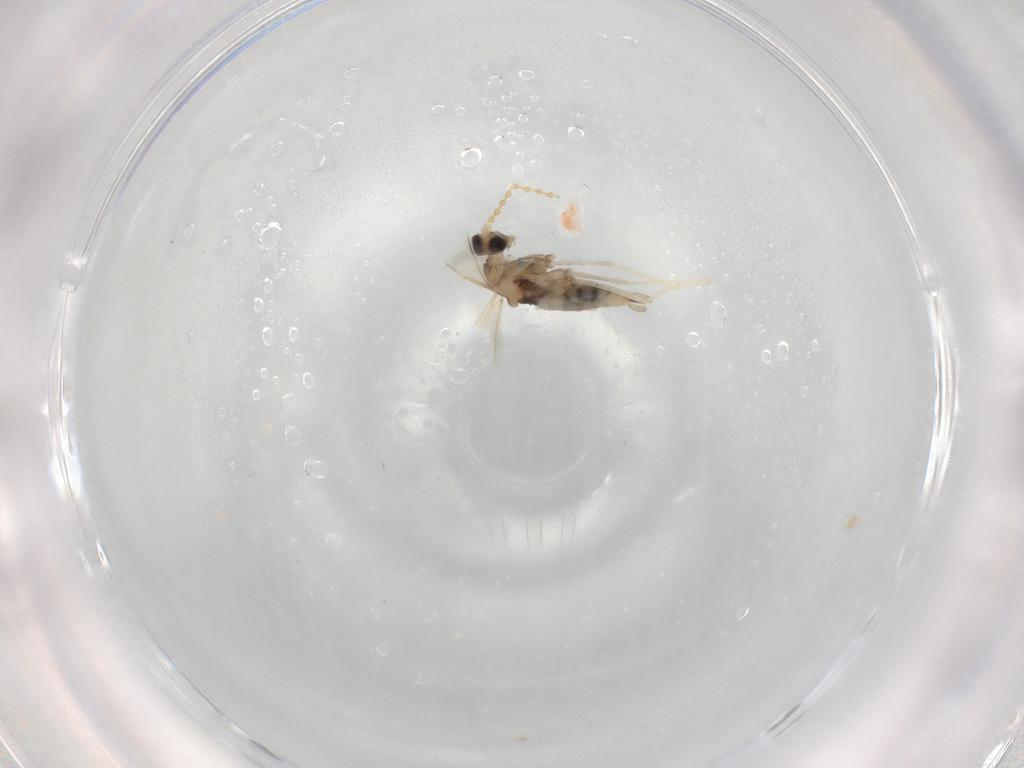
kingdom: Animalia
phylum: Arthropoda
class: Insecta
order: Diptera
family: Cecidomyiidae
